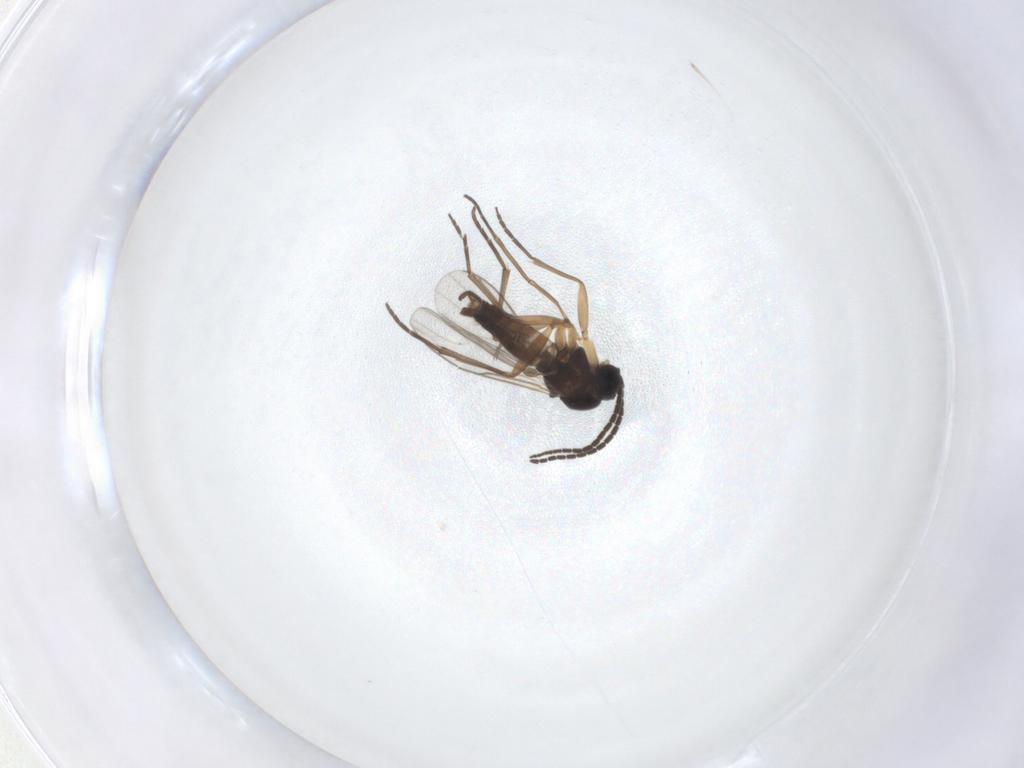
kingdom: Animalia
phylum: Arthropoda
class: Insecta
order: Diptera
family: Sciaridae
